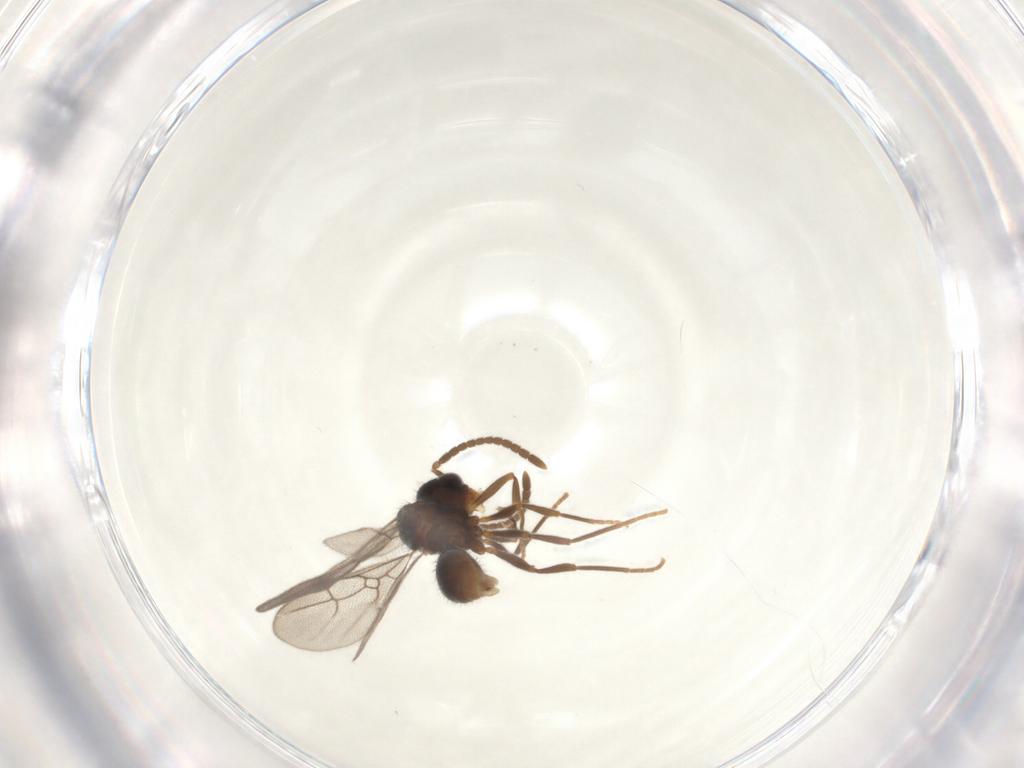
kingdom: Animalia
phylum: Arthropoda
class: Insecta
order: Hymenoptera
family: Formicidae
